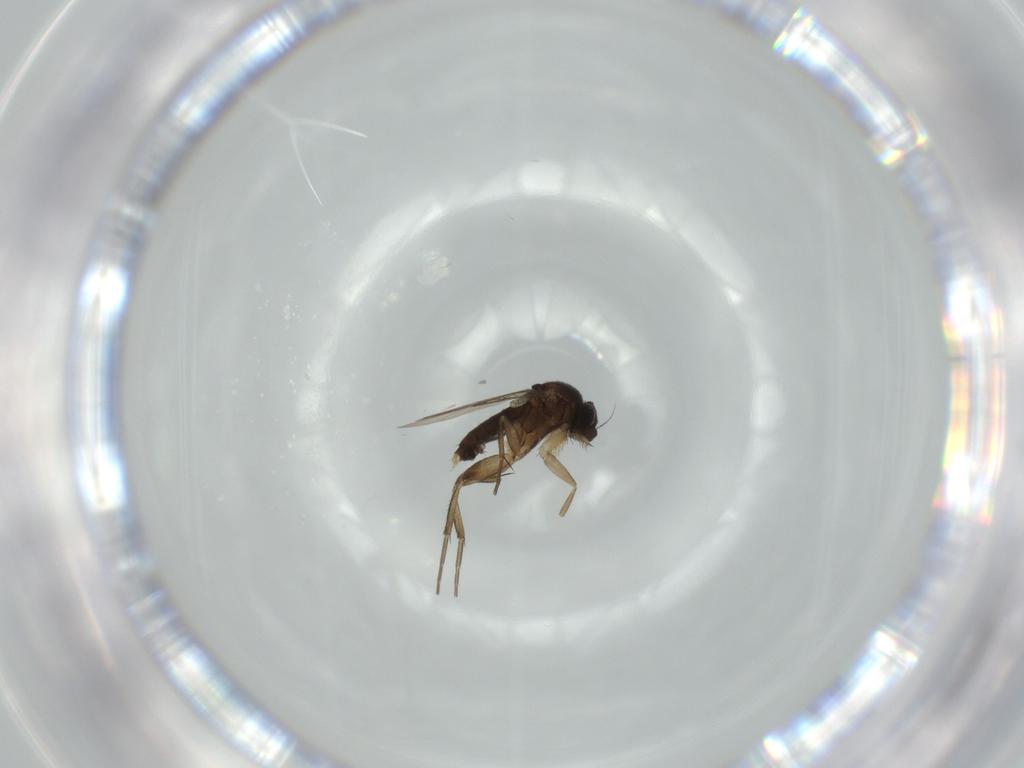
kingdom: Animalia
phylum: Arthropoda
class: Insecta
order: Diptera
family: Phoridae
